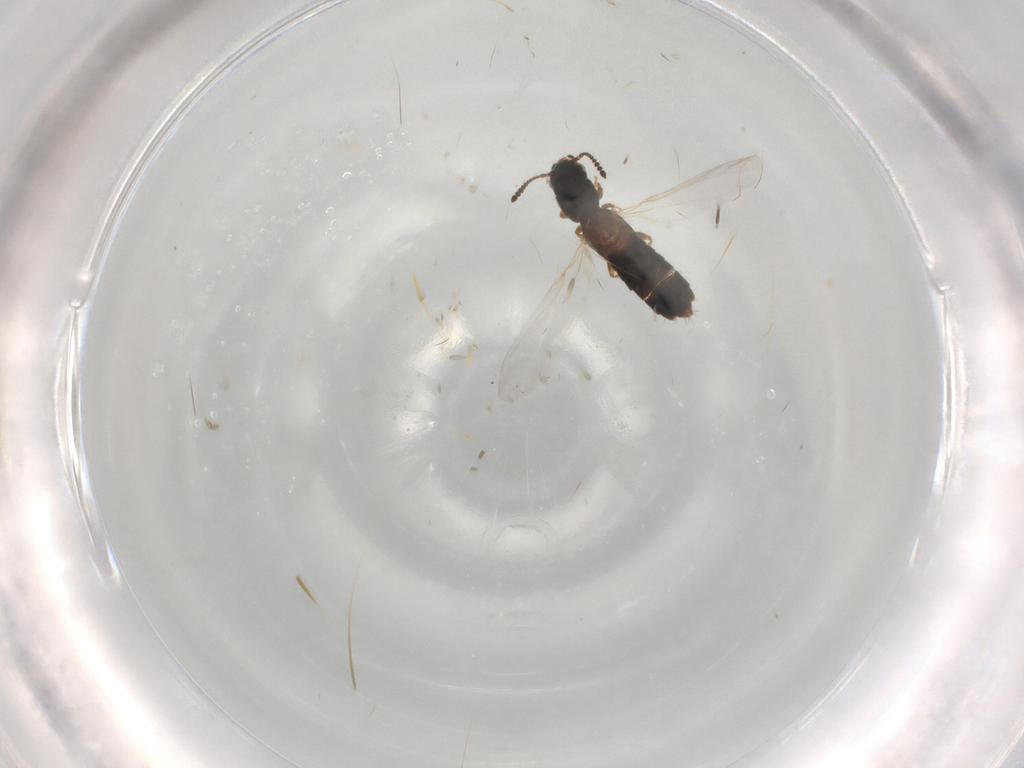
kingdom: Animalia
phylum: Arthropoda
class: Insecta
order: Coleoptera
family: Staphylinidae
